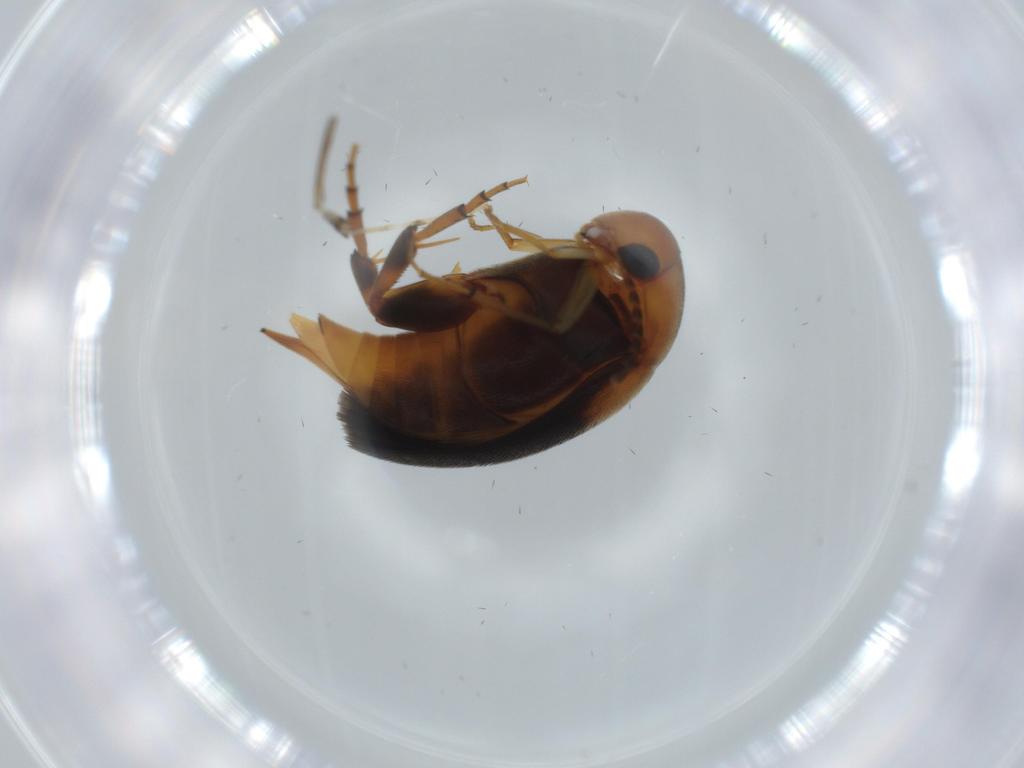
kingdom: Animalia
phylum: Arthropoda
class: Insecta
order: Coleoptera
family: Mordellidae
